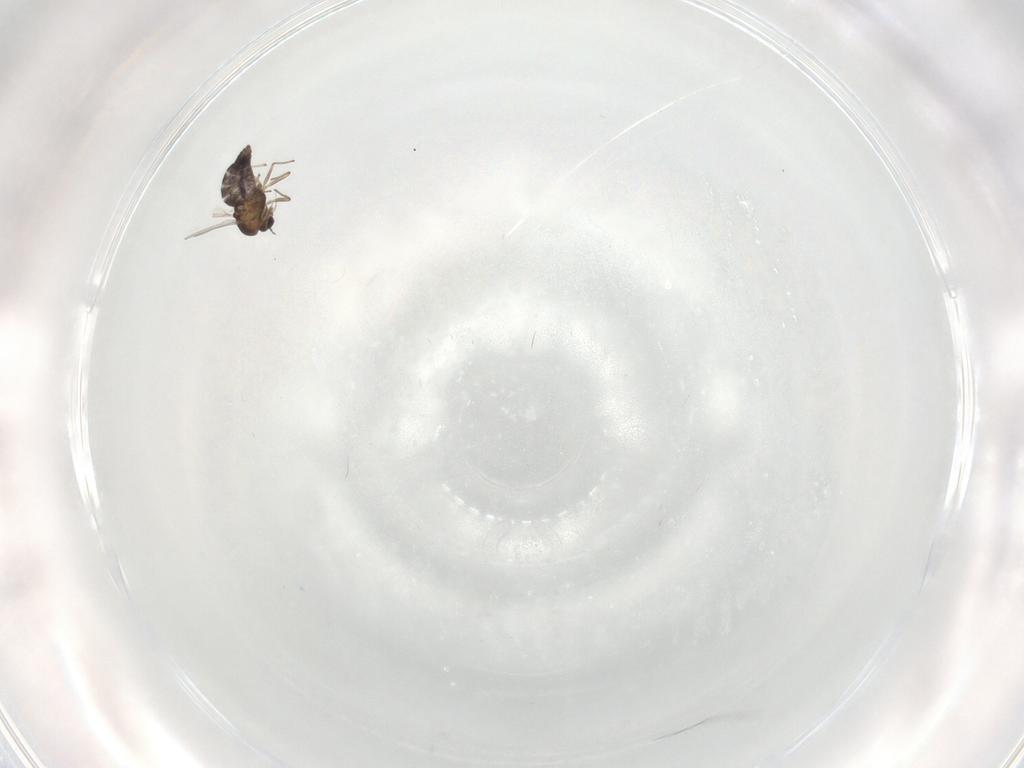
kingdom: Animalia
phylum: Arthropoda
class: Insecta
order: Diptera
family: Chironomidae
